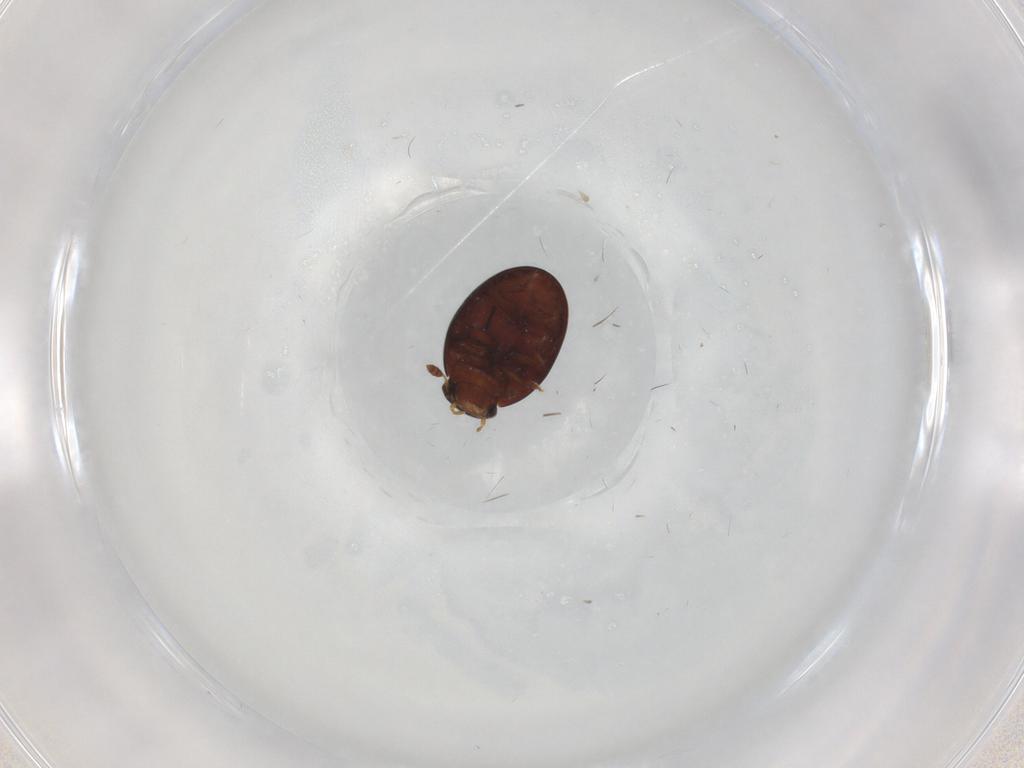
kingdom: Animalia
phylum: Arthropoda
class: Insecta
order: Coleoptera
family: Hydrophilidae
